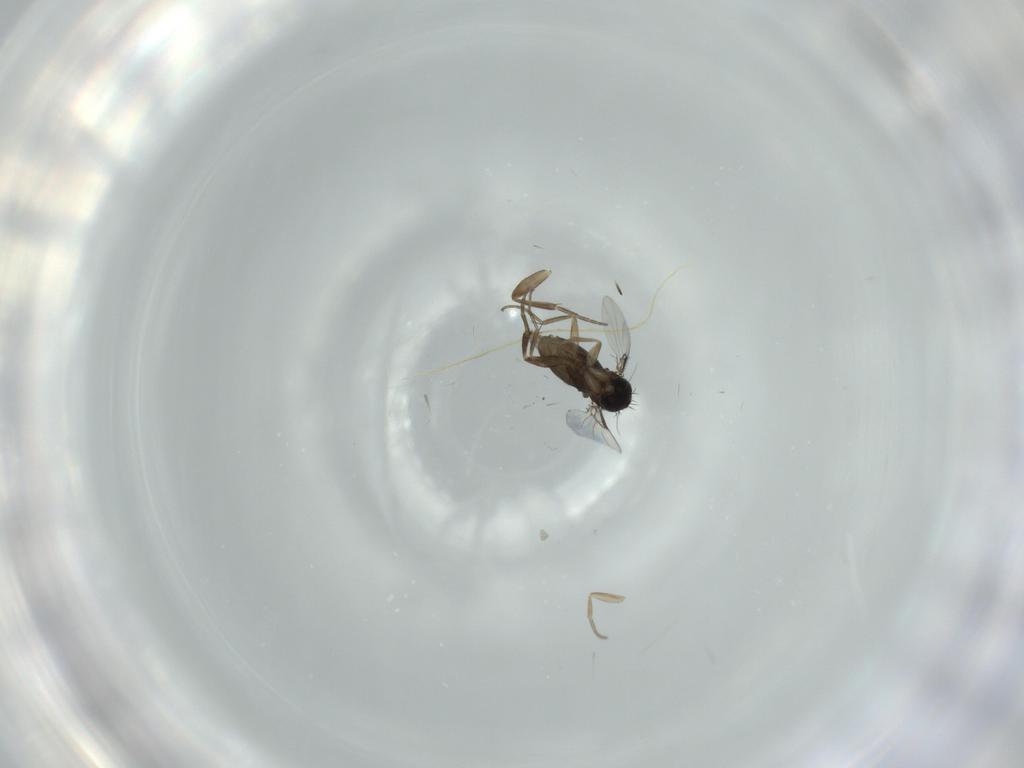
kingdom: Animalia
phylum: Arthropoda
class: Insecta
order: Diptera
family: Phoridae
